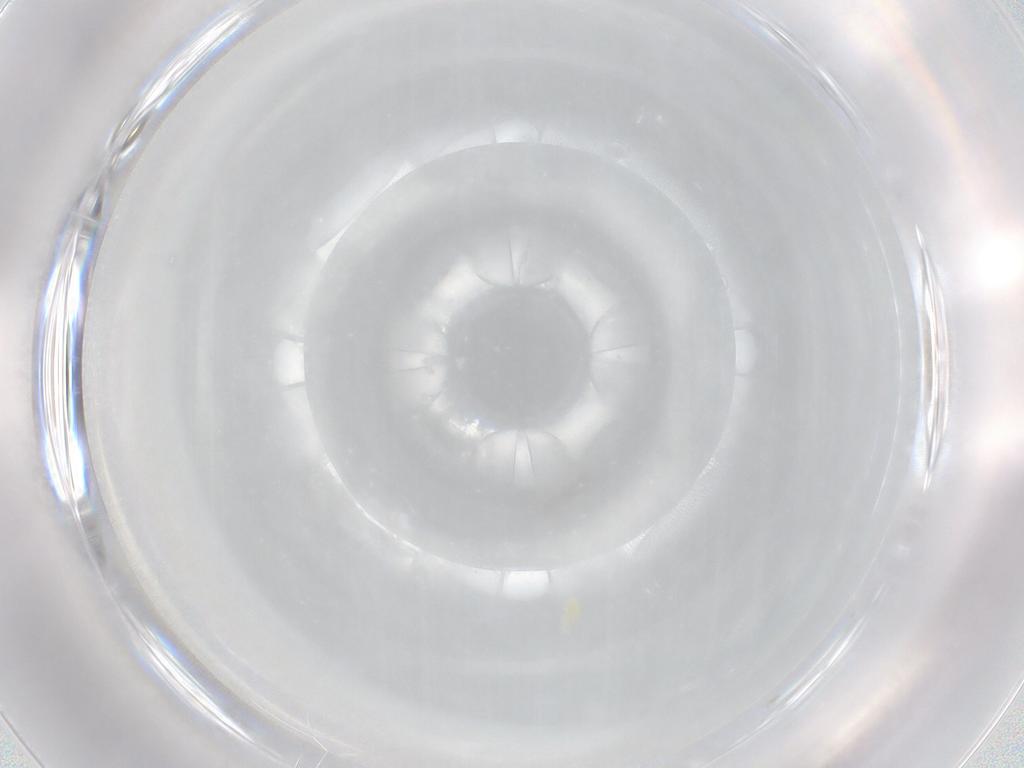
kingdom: Animalia
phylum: Arthropoda
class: Arachnida
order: Trombidiformes
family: Eupodidae
